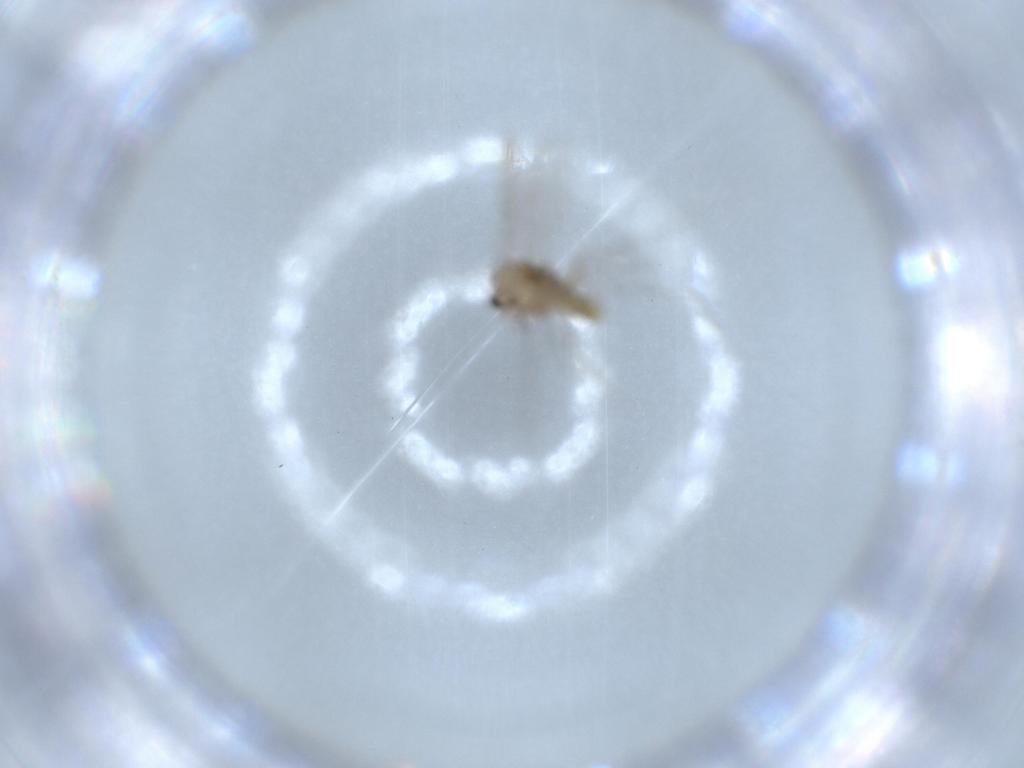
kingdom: Animalia
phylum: Arthropoda
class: Insecta
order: Diptera
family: Chironomidae
